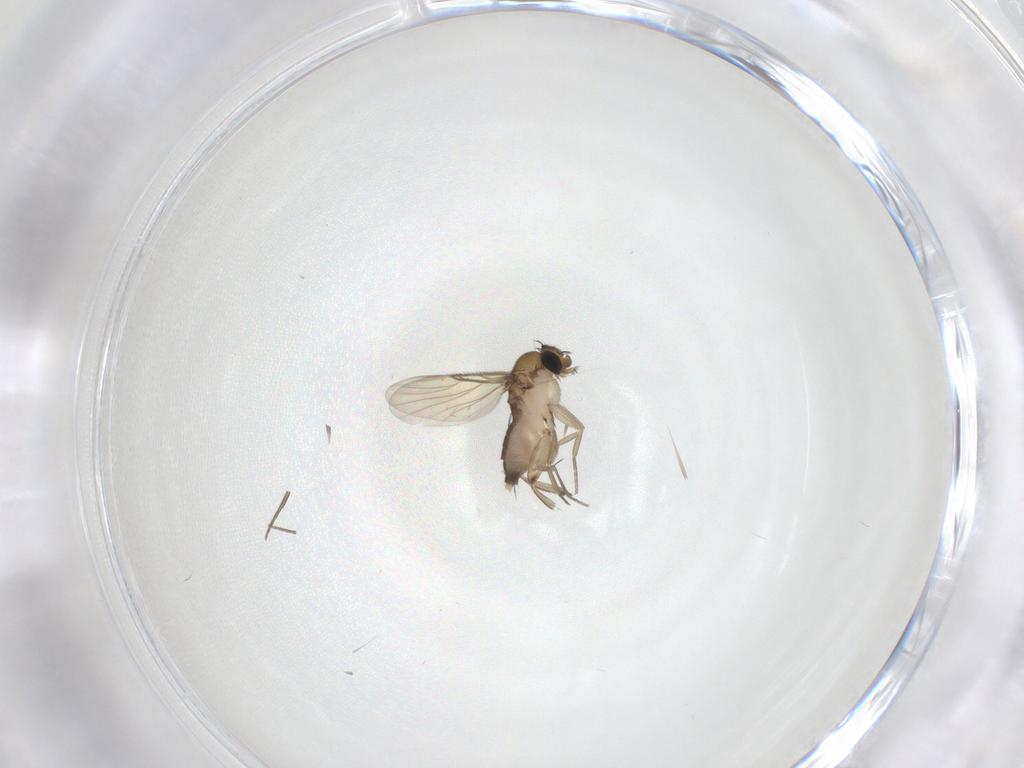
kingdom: Animalia
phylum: Arthropoda
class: Insecta
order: Diptera
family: Phoridae
